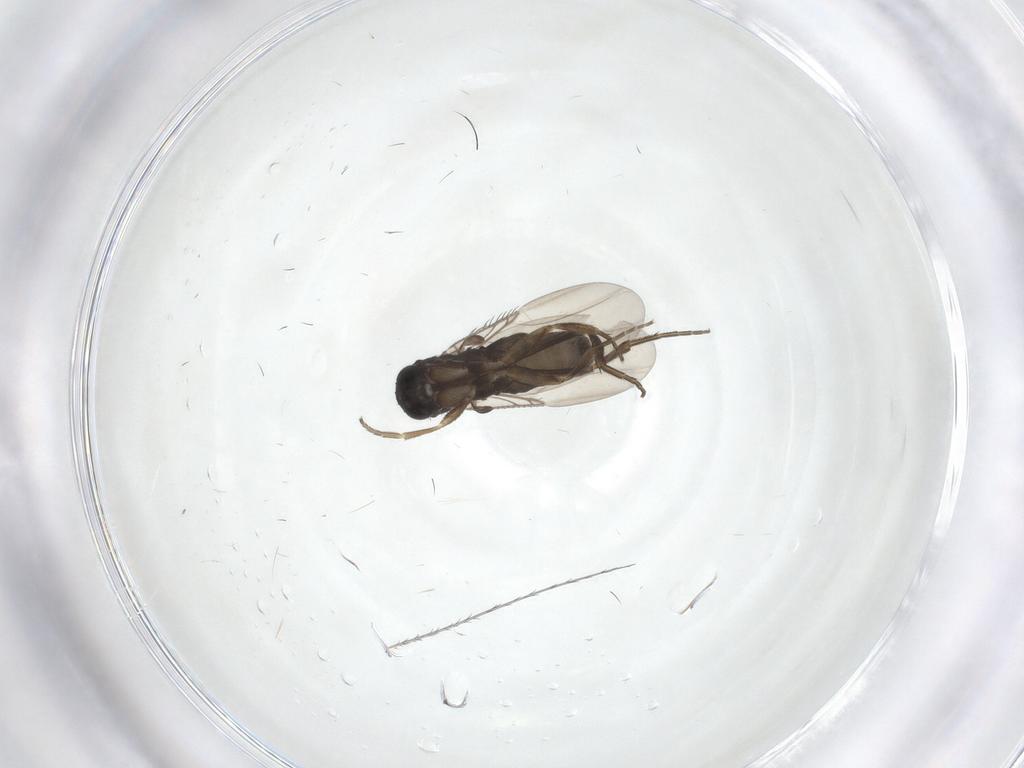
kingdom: Animalia
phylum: Arthropoda
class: Insecta
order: Diptera
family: Phoridae
